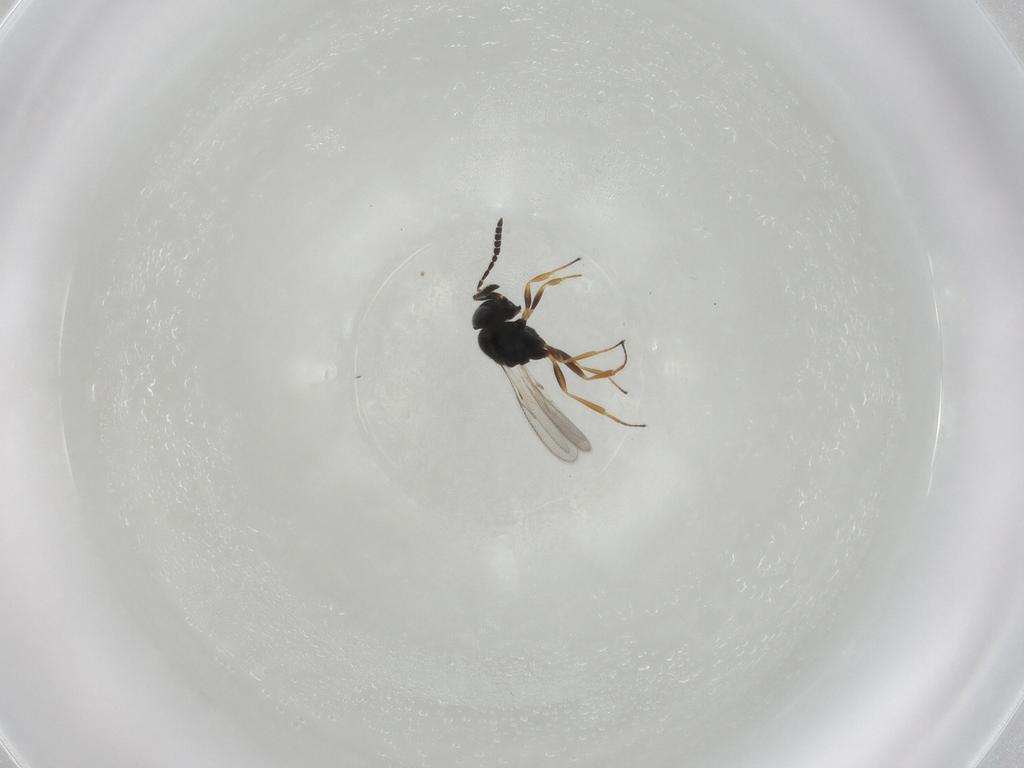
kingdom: Animalia
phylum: Arthropoda
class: Insecta
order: Hymenoptera
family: Scelionidae
